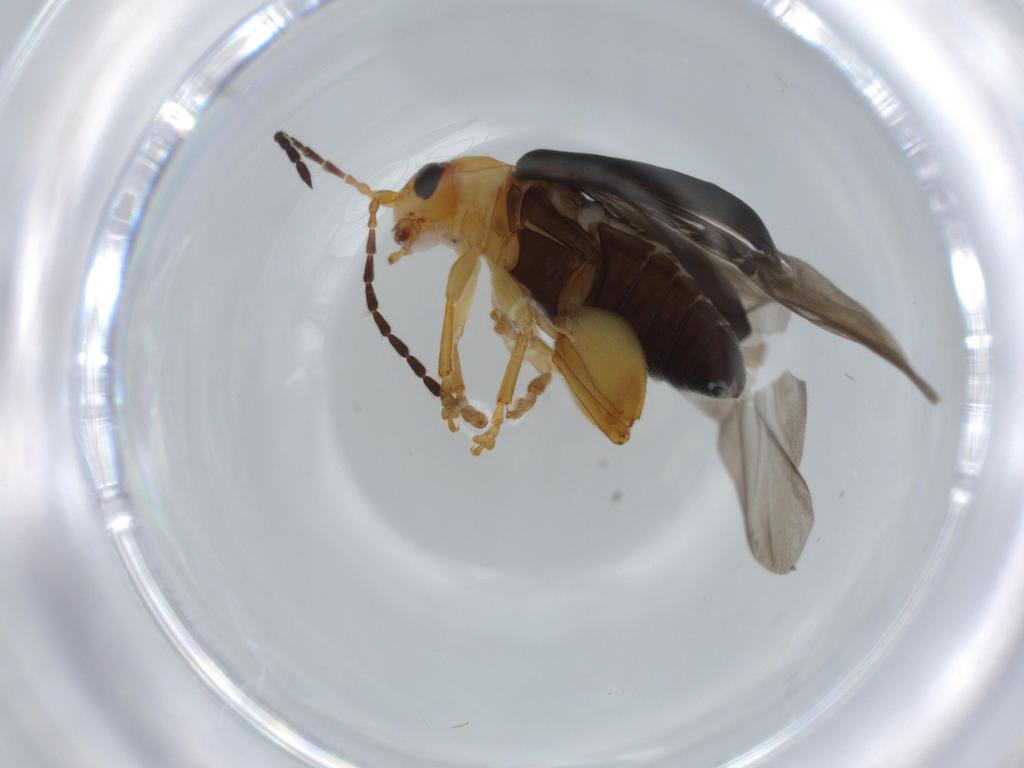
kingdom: Animalia
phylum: Arthropoda
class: Insecta
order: Coleoptera
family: Chrysomelidae
